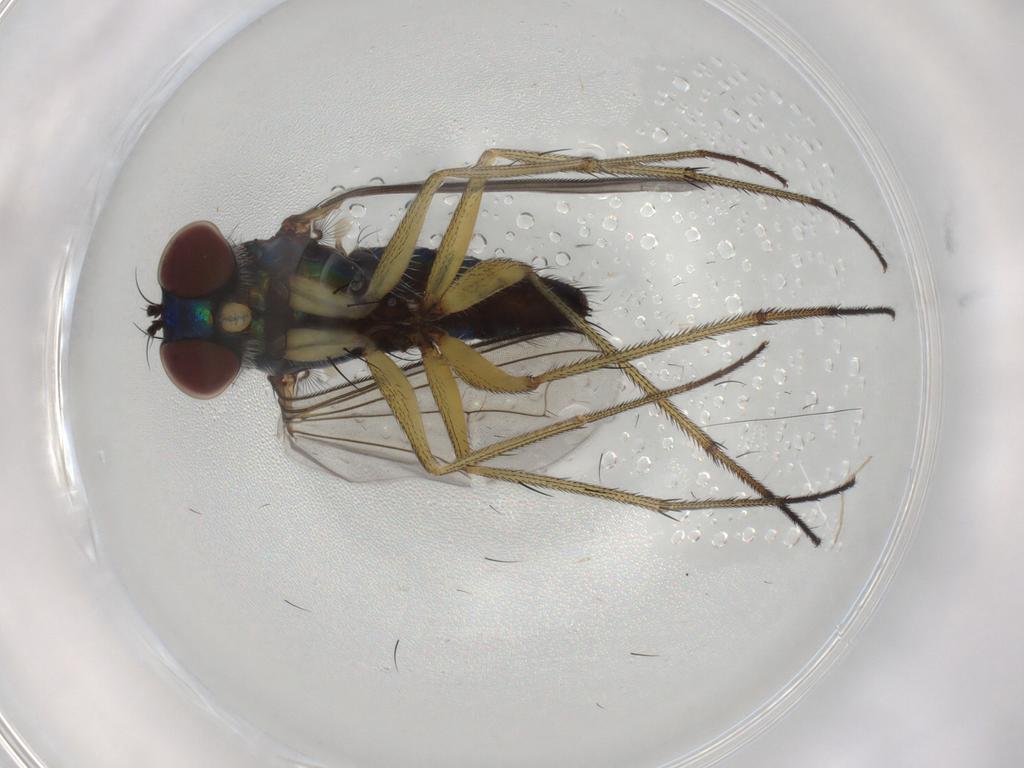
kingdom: Animalia
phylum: Arthropoda
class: Insecta
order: Diptera
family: Dolichopodidae
